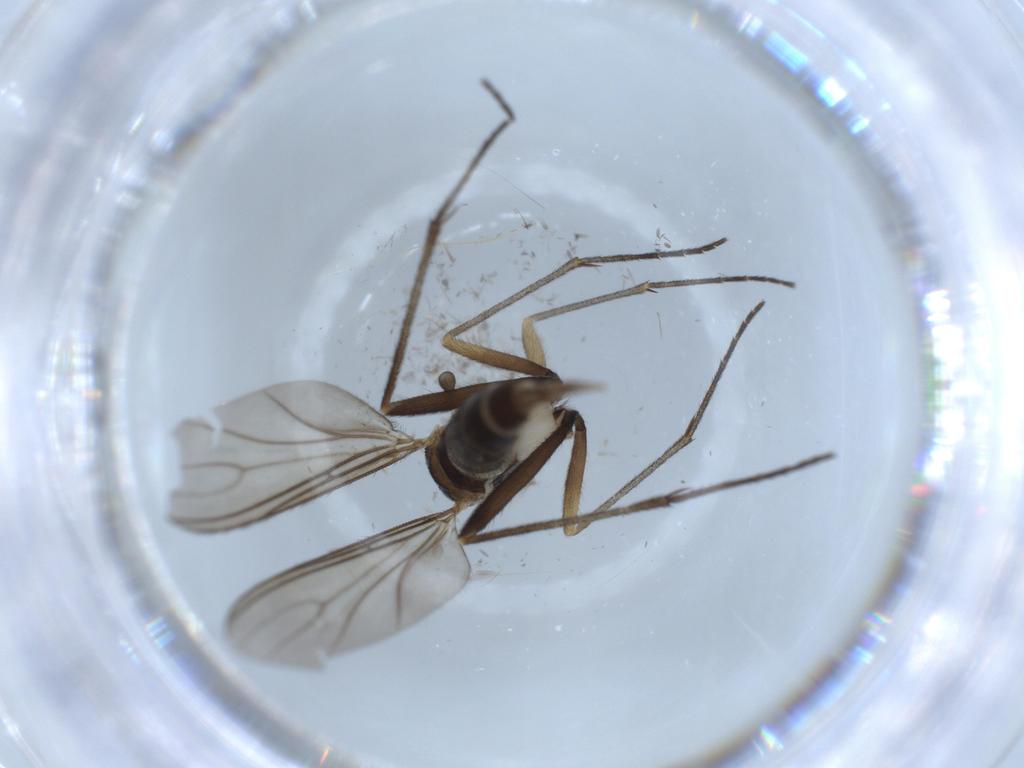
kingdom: Animalia
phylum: Arthropoda
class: Insecta
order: Diptera
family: Sciaridae
